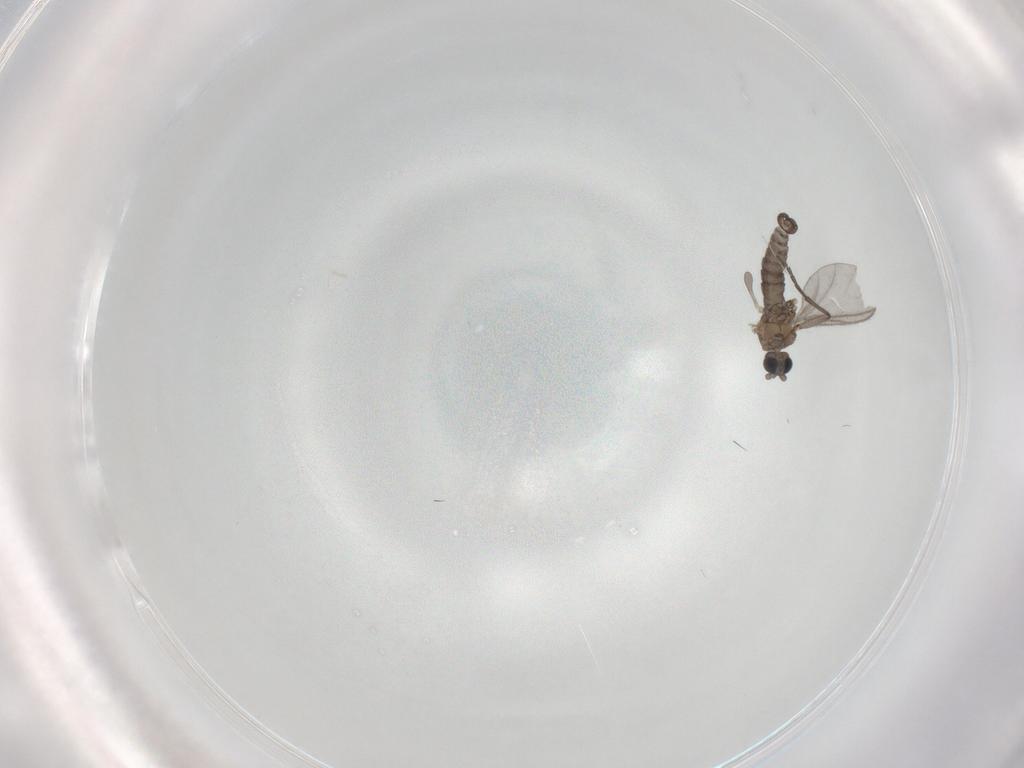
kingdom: Animalia
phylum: Arthropoda
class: Insecta
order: Diptera
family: Sciaridae
